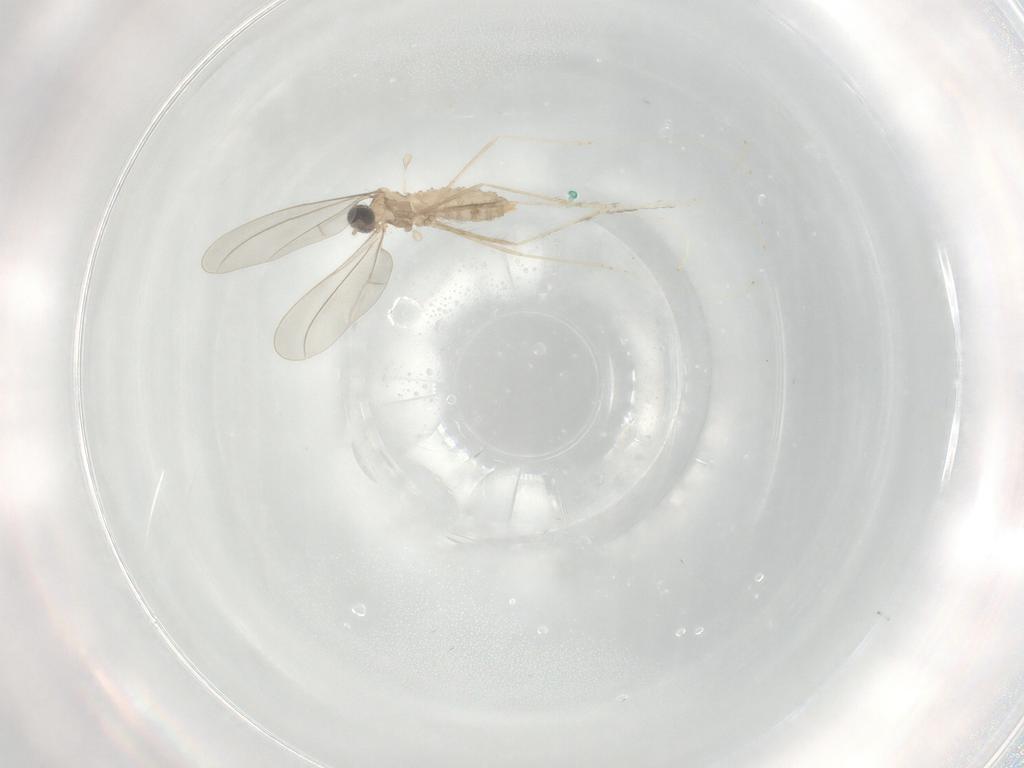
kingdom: Animalia
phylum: Arthropoda
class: Insecta
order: Diptera
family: Cecidomyiidae
